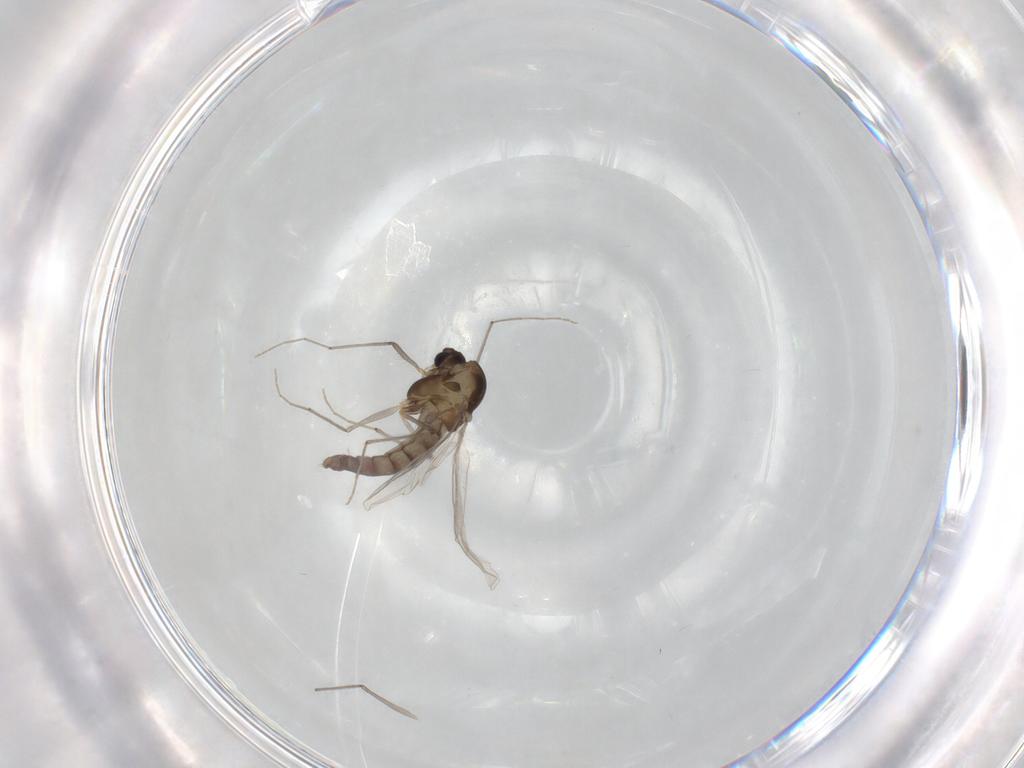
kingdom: Animalia
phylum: Arthropoda
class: Insecta
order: Diptera
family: Chironomidae
